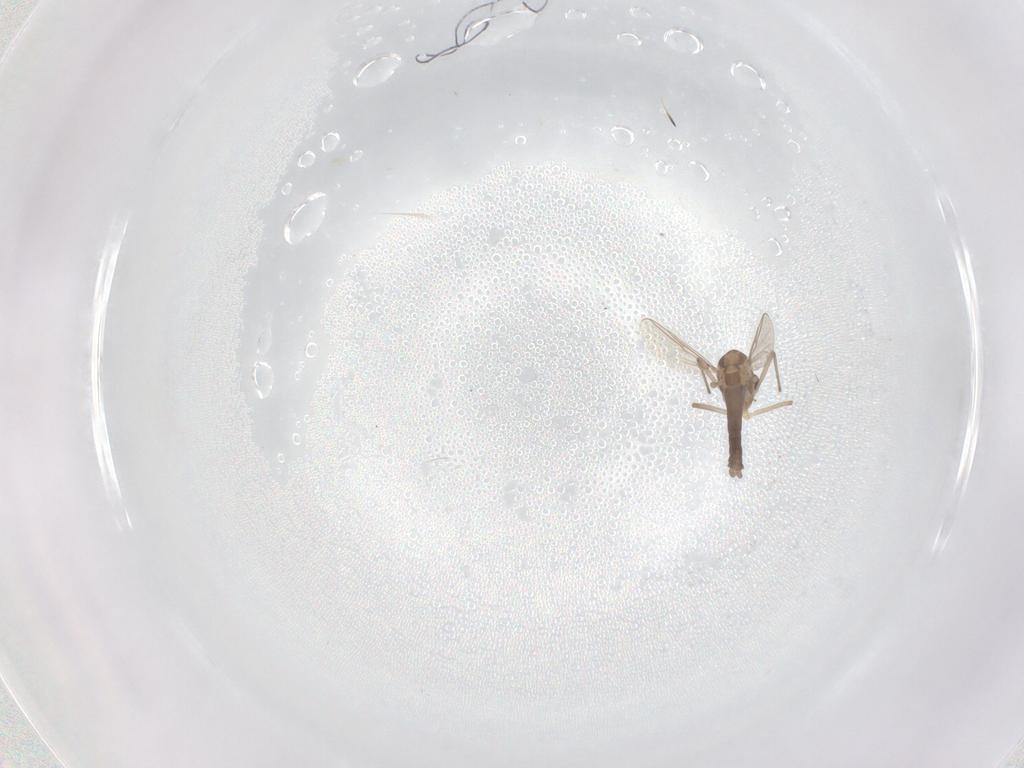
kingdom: Animalia
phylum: Arthropoda
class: Insecta
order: Diptera
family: Chironomidae
